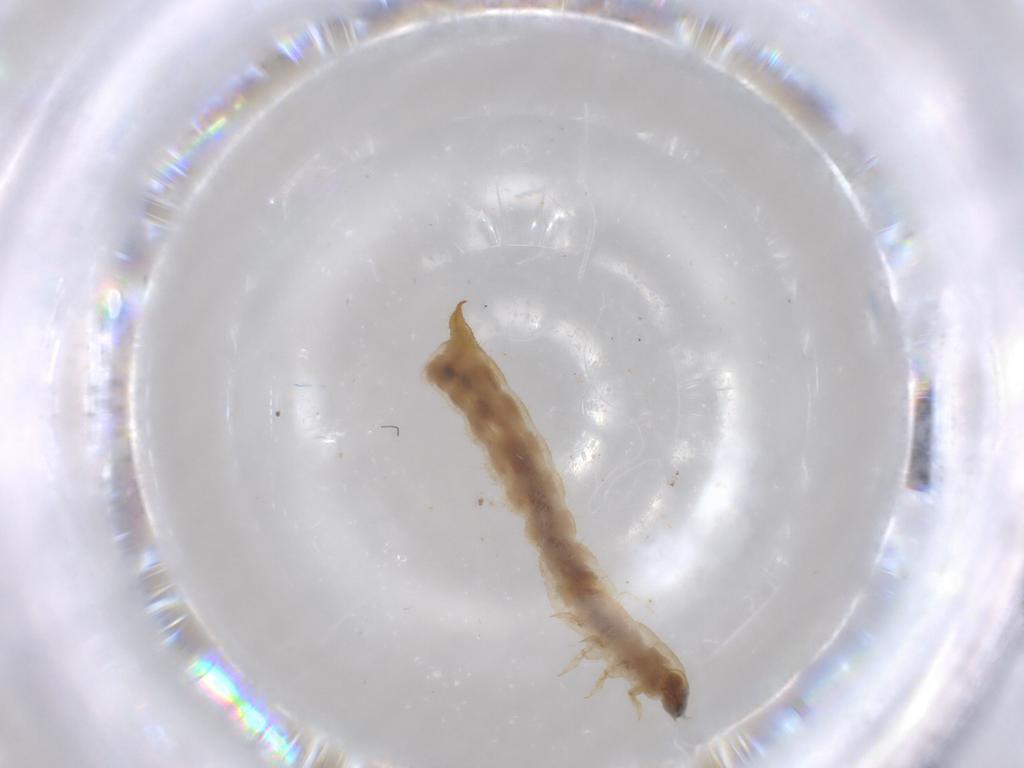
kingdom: Animalia
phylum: Arthropoda
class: Insecta
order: Coleoptera
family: Zopheridae
